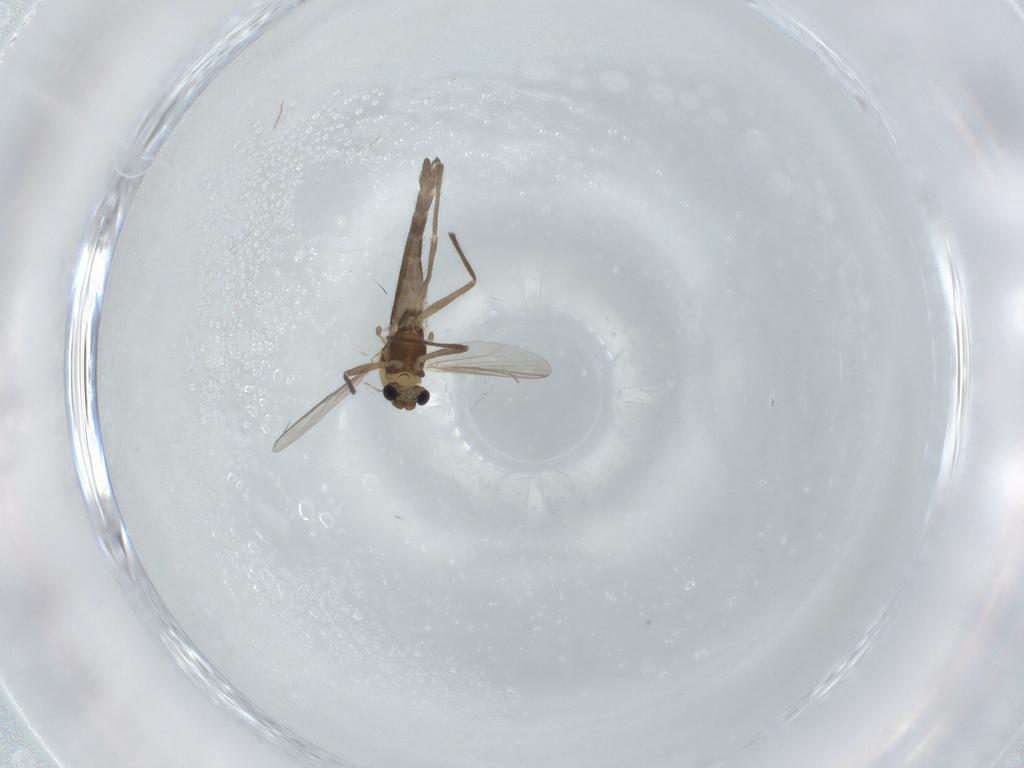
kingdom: Animalia
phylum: Arthropoda
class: Insecta
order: Diptera
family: Chironomidae
